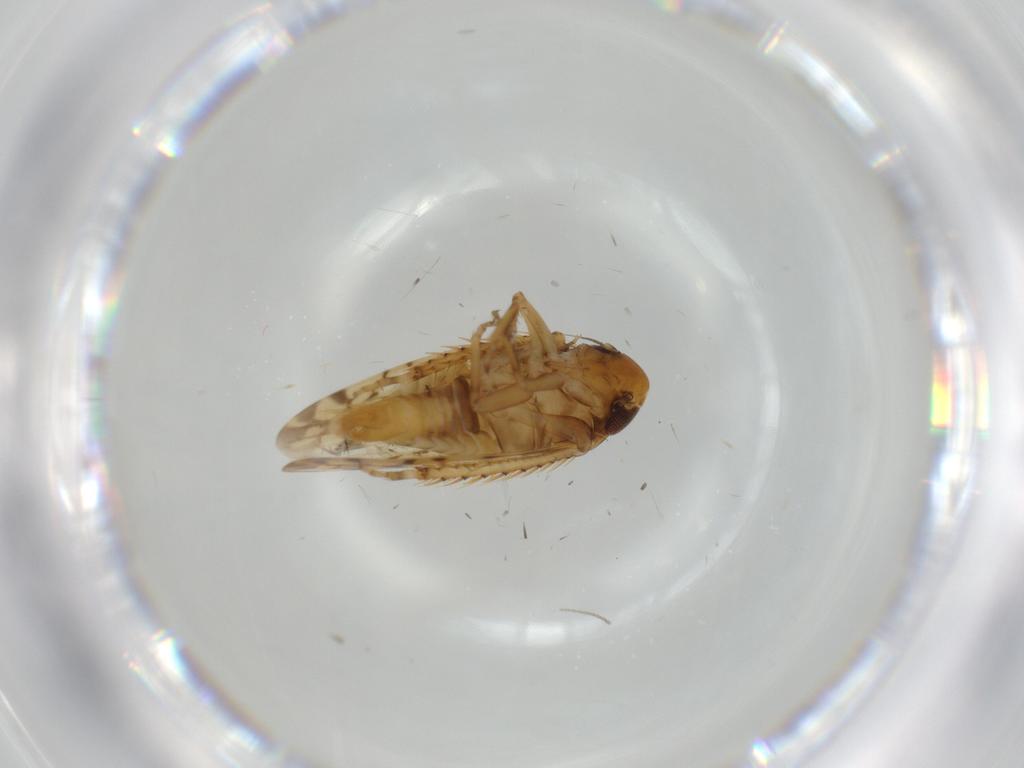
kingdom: Animalia
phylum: Arthropoda
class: Insecta
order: Hemiptera
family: Cicadellidae
